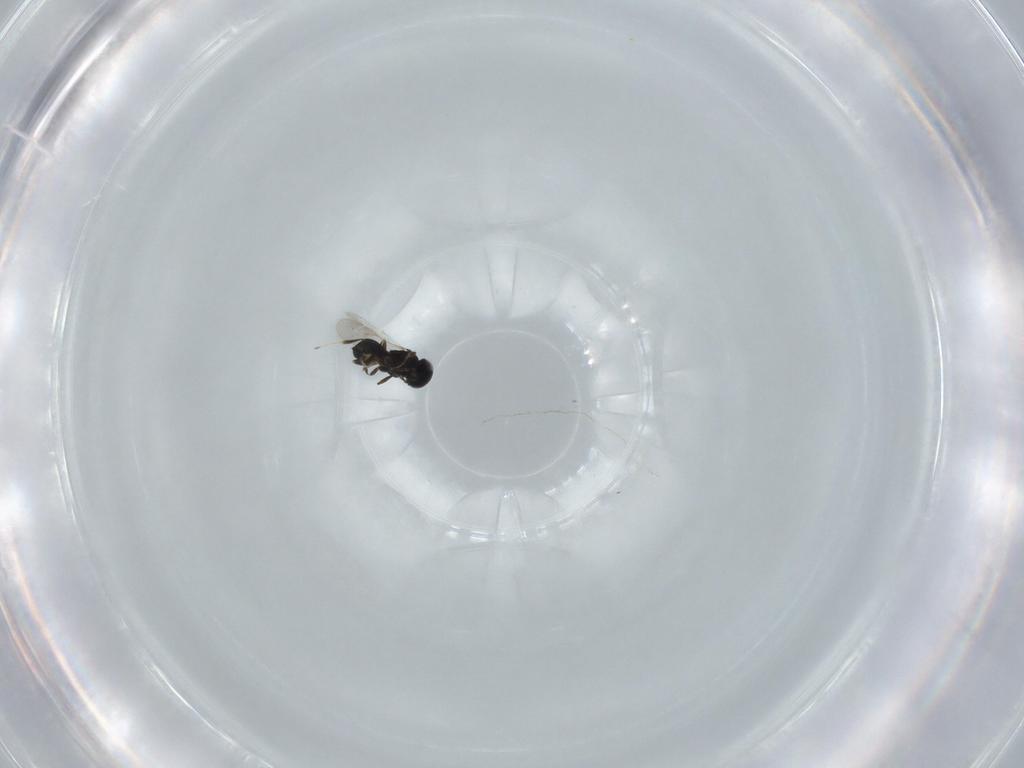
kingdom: Animalia
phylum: Arthropoda
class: Insecta
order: Hymenoptera
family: Scelionidae
